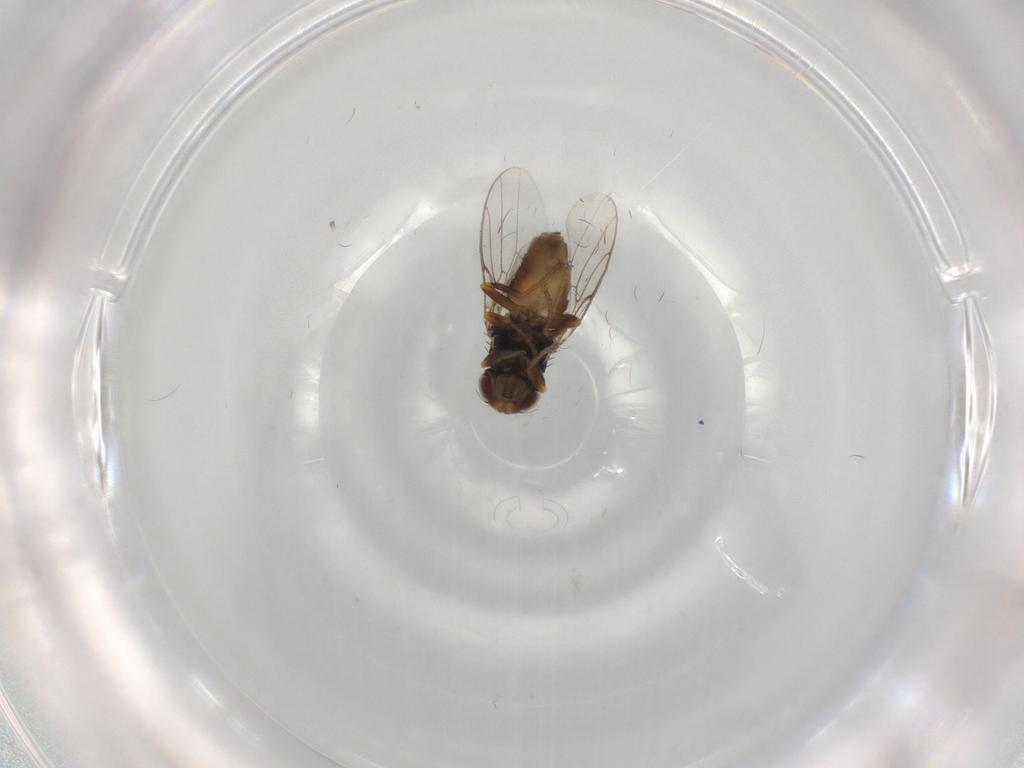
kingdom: Animalia
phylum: Arthropoda
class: Insecta
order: Diptera
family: Chloropidae
